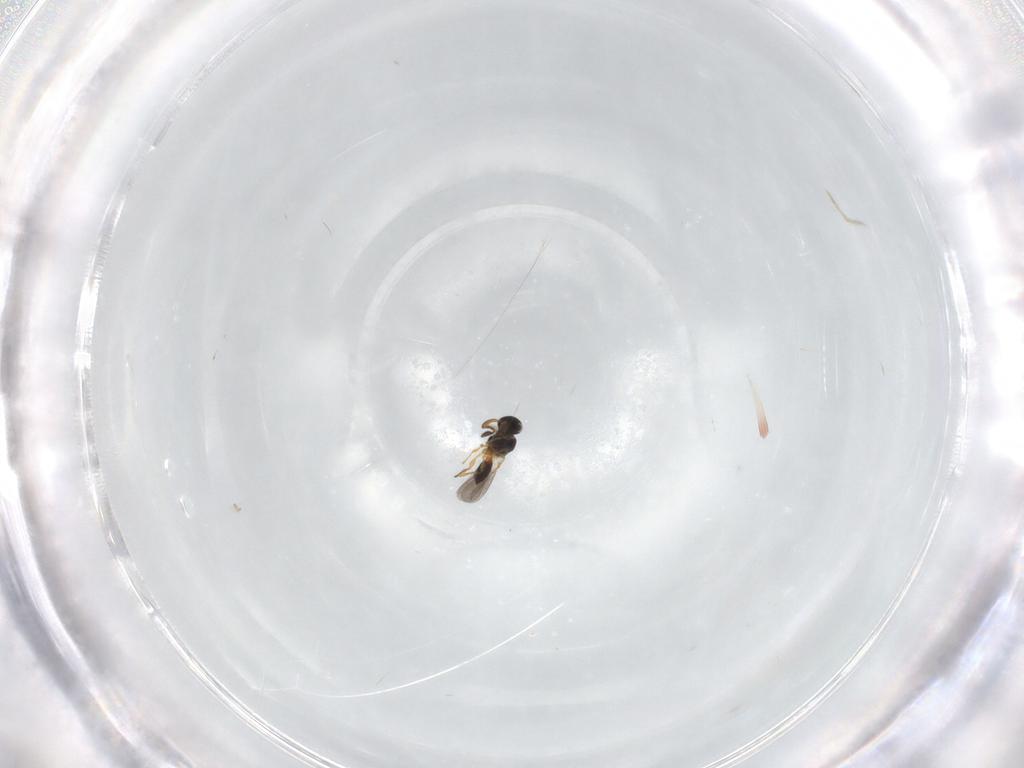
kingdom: Animalia
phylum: Arthropoda
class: Insecta
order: Hymenoptera
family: Platygastridae
